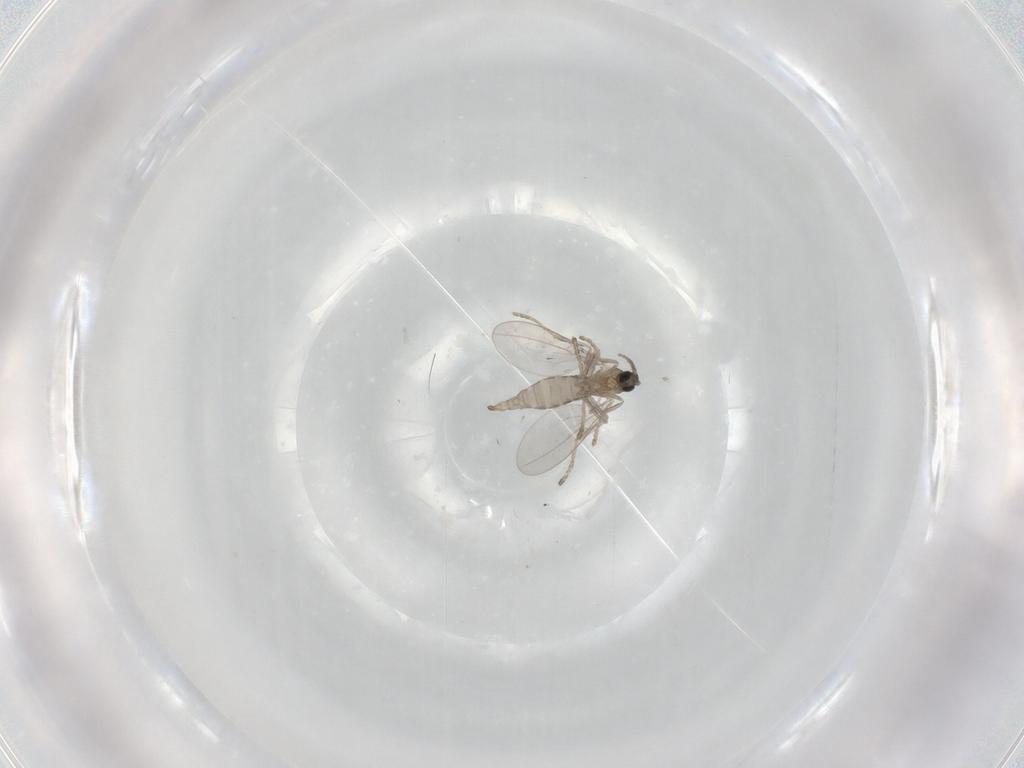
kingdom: Animalia
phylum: Arthropoda
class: Insecta
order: Diptera
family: Cecidomyiidae
